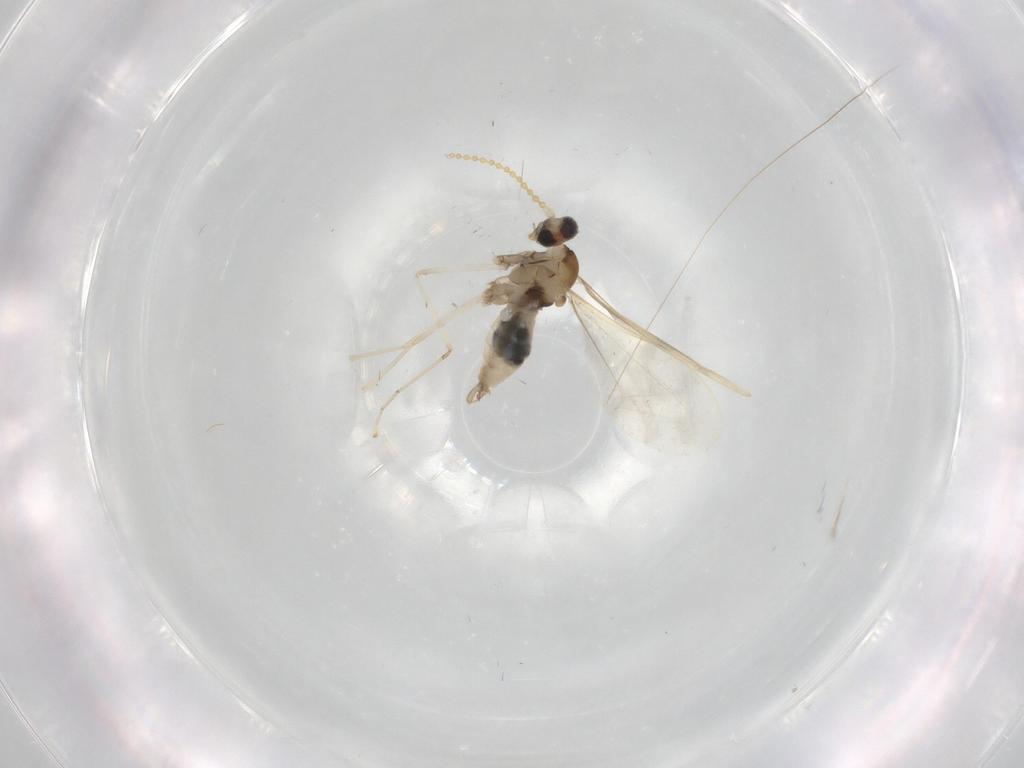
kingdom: Animalia
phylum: Arthropoda
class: Insecta
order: Diptera
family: Cecidomyiidae
